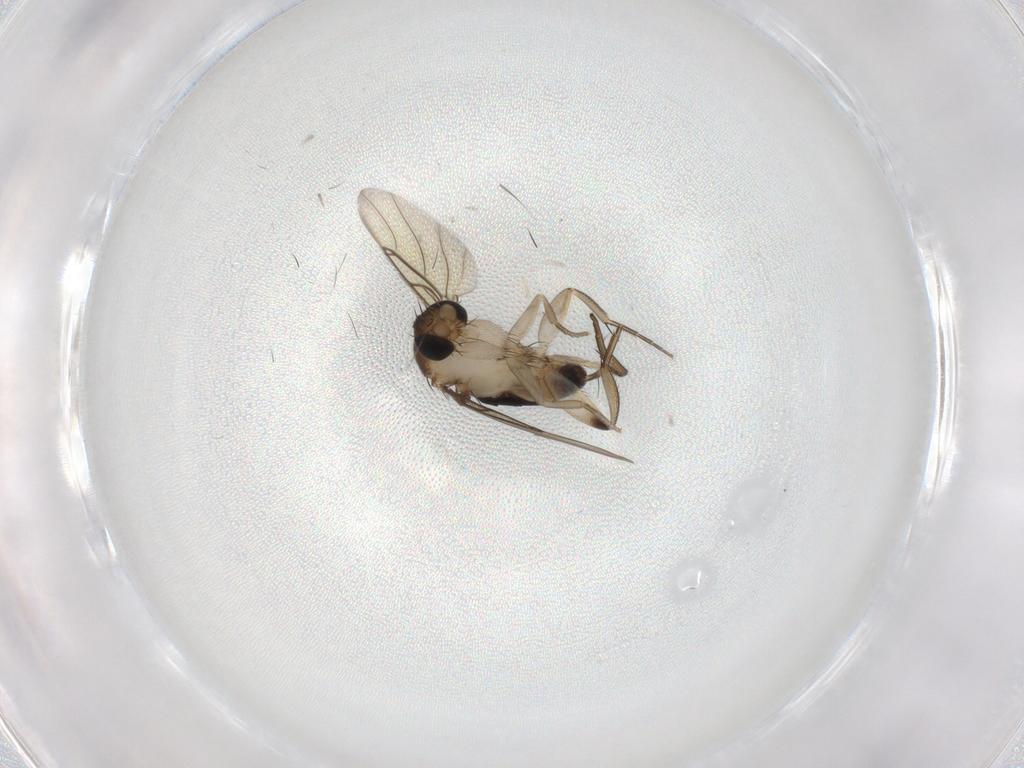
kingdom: Animalia
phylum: Arthropoda
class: Insecta
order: Diptera
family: Phoridae
